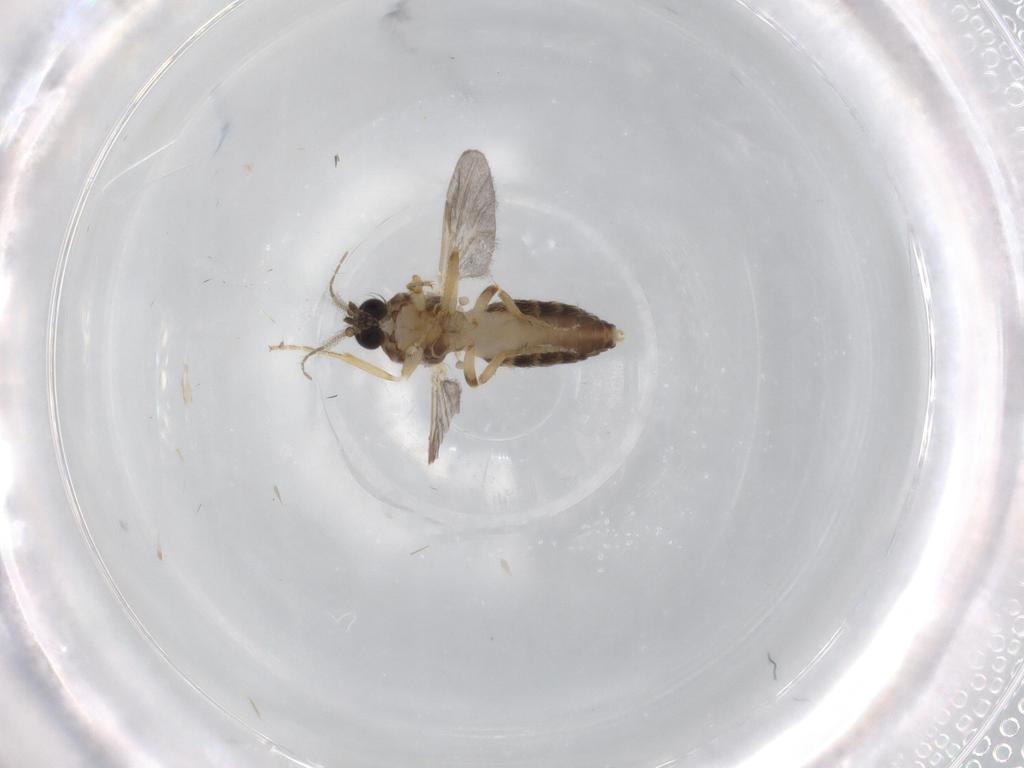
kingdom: Animalia
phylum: Arthropoda
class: Insecta
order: Diptera
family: Ceratopogonidae
